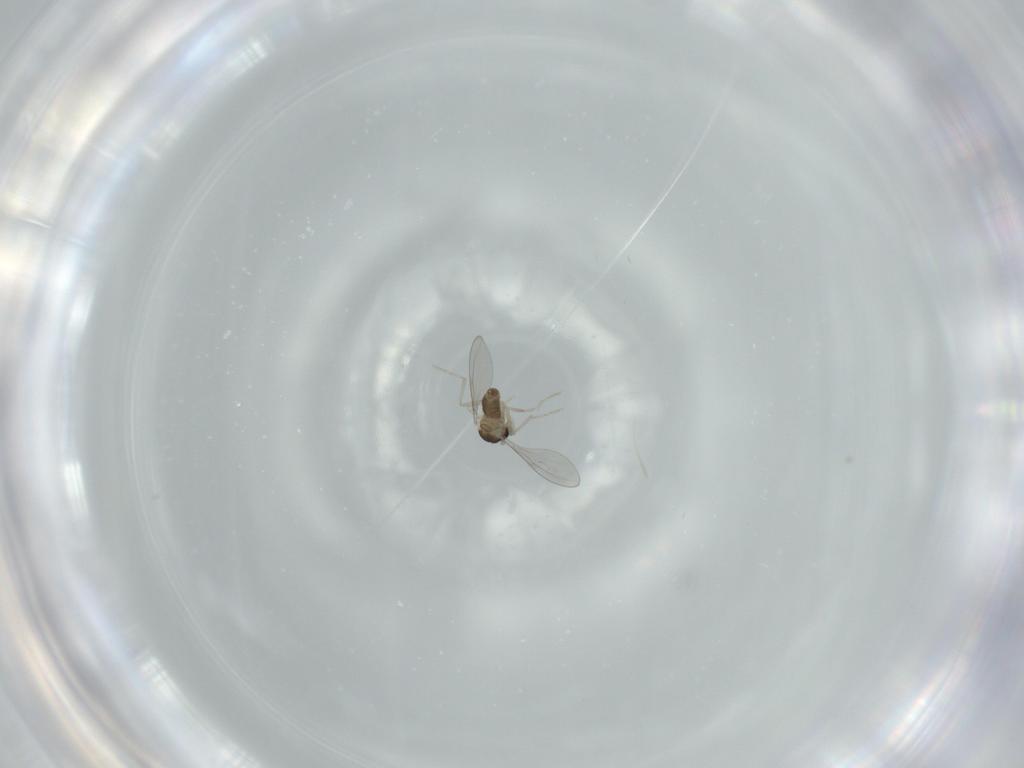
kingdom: Animalia
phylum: Arthropoda
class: Insecta
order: Diptera
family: Cecidomyiidae
